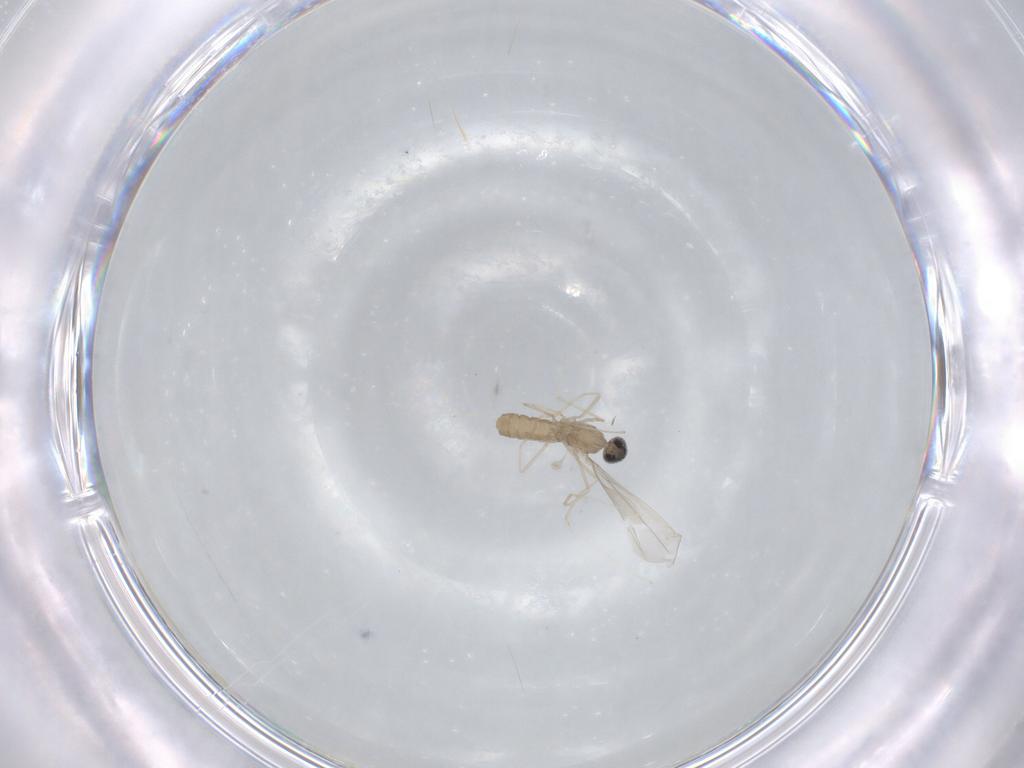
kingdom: Animalia
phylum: Arthropoda
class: Insecta
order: Diptera
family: Cecidomyiidae
